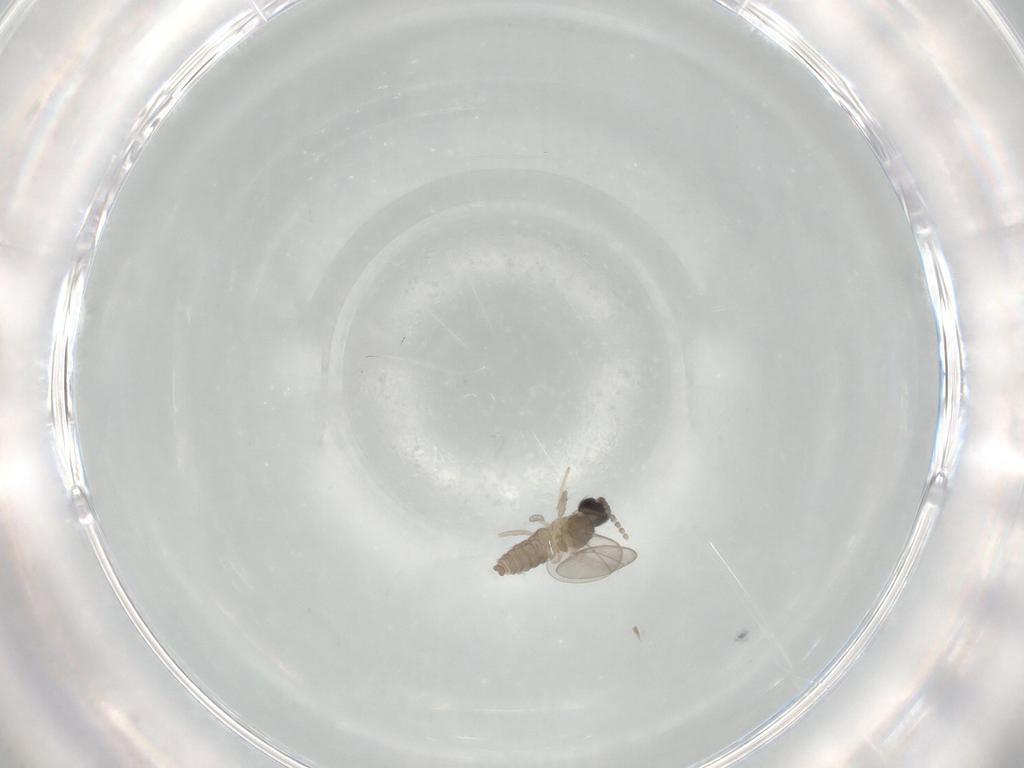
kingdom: Animalia
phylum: Arthropoda
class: Insecta
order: Diptera
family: Cecidomyiidae
